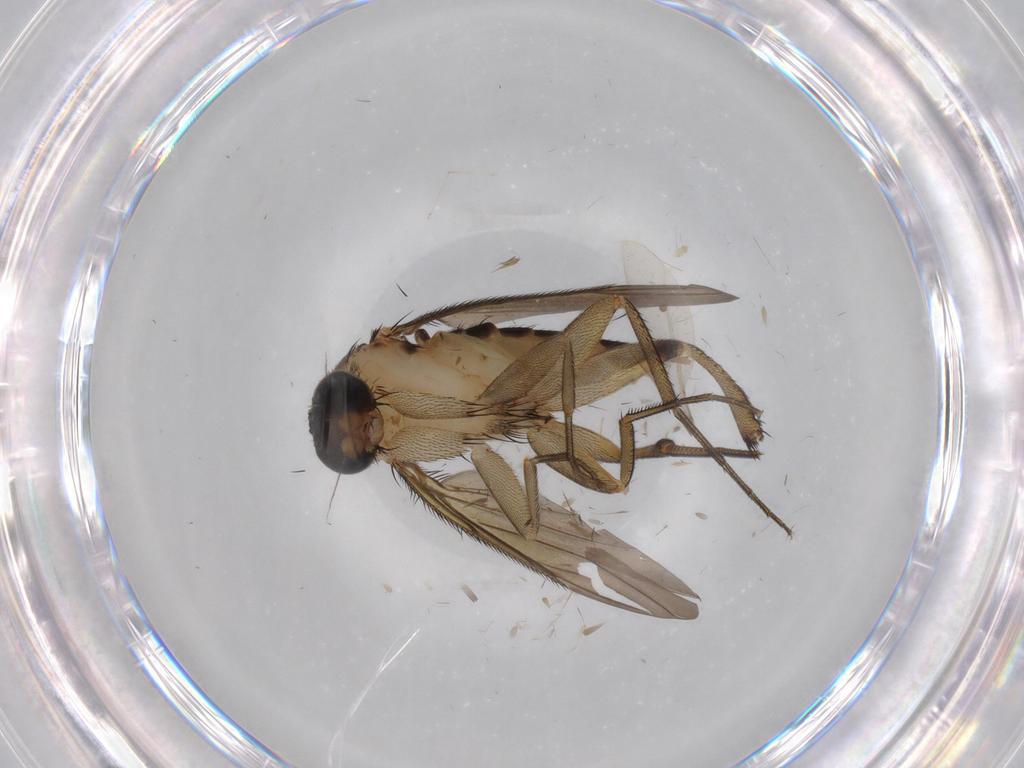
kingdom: Animalia
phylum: Arthropoda
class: Insecta
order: Diptera
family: Phoridae
